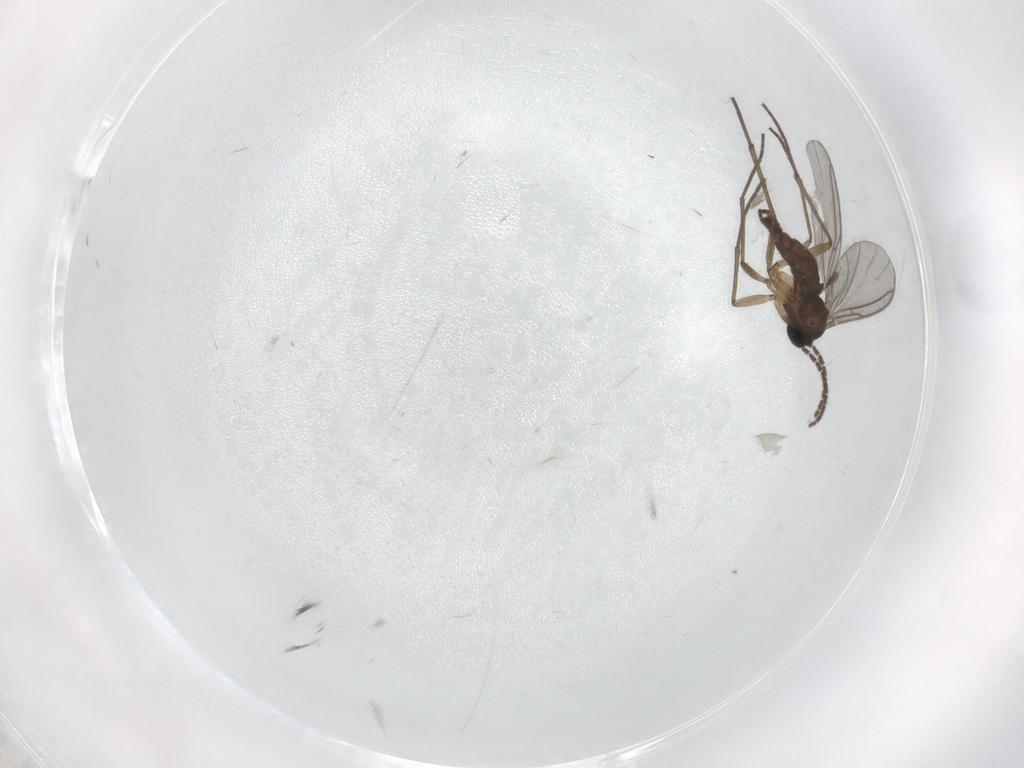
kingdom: Animalia
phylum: Arthropoda
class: Insecta
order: Diptera
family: Sciaridae
